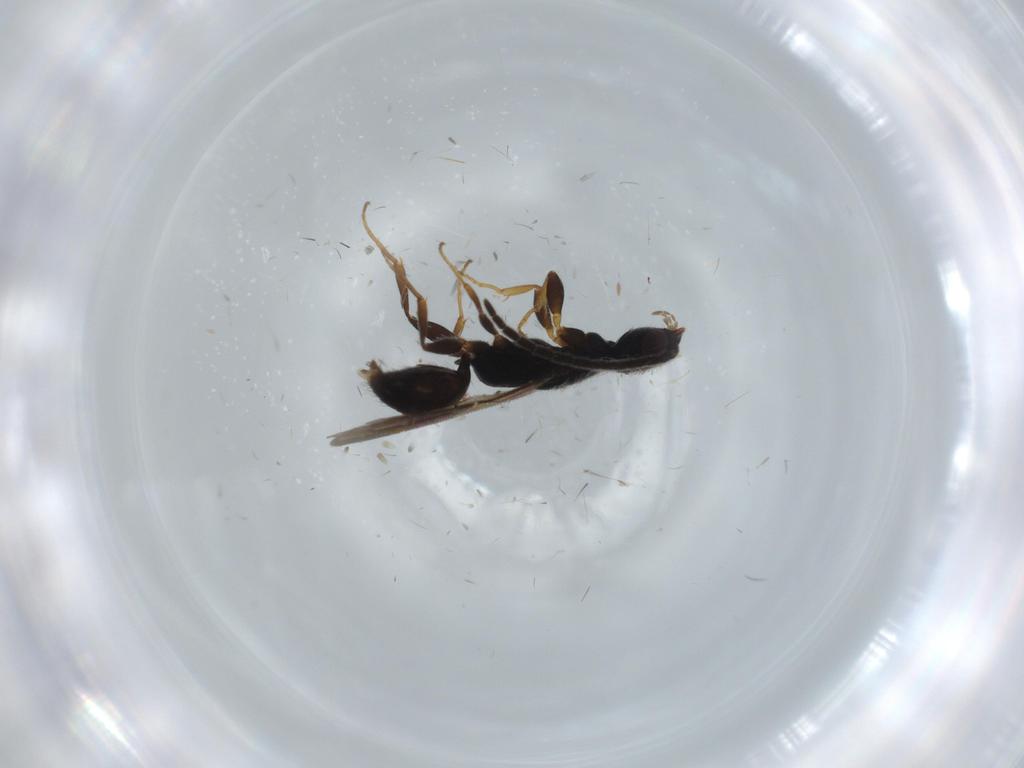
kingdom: Animalia
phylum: Arthropoda
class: Insecta
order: Hymenoptera
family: Bethylidae
